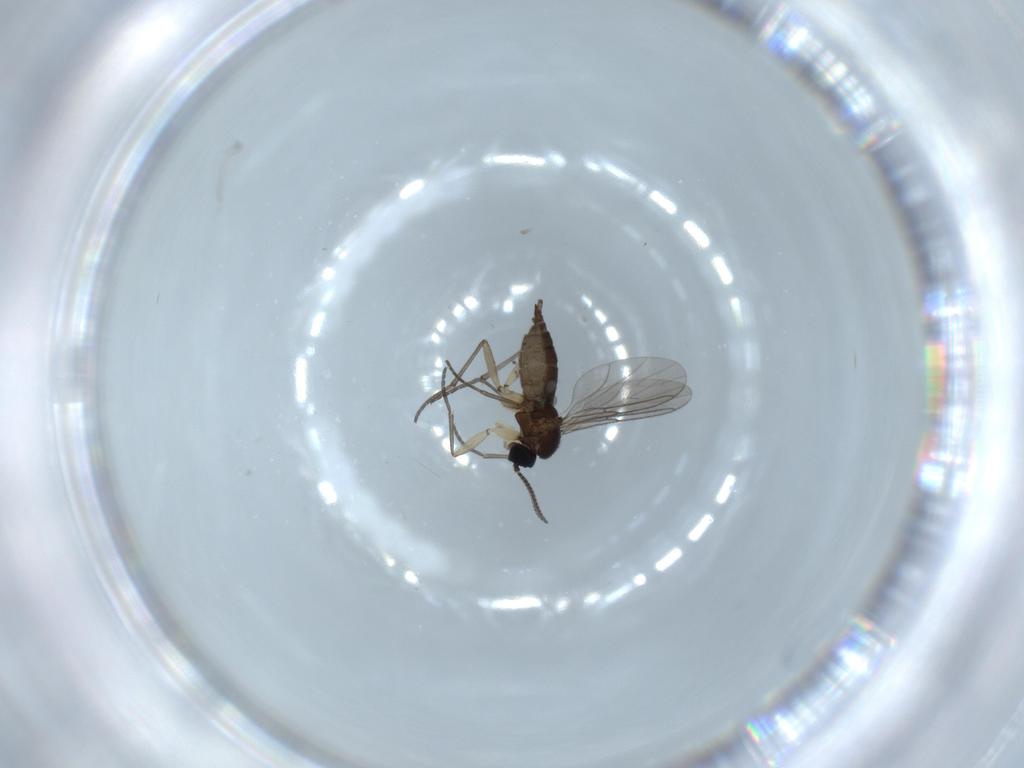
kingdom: Animalia
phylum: Arthropoda
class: Insecta
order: Diptera
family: Sciaridae
